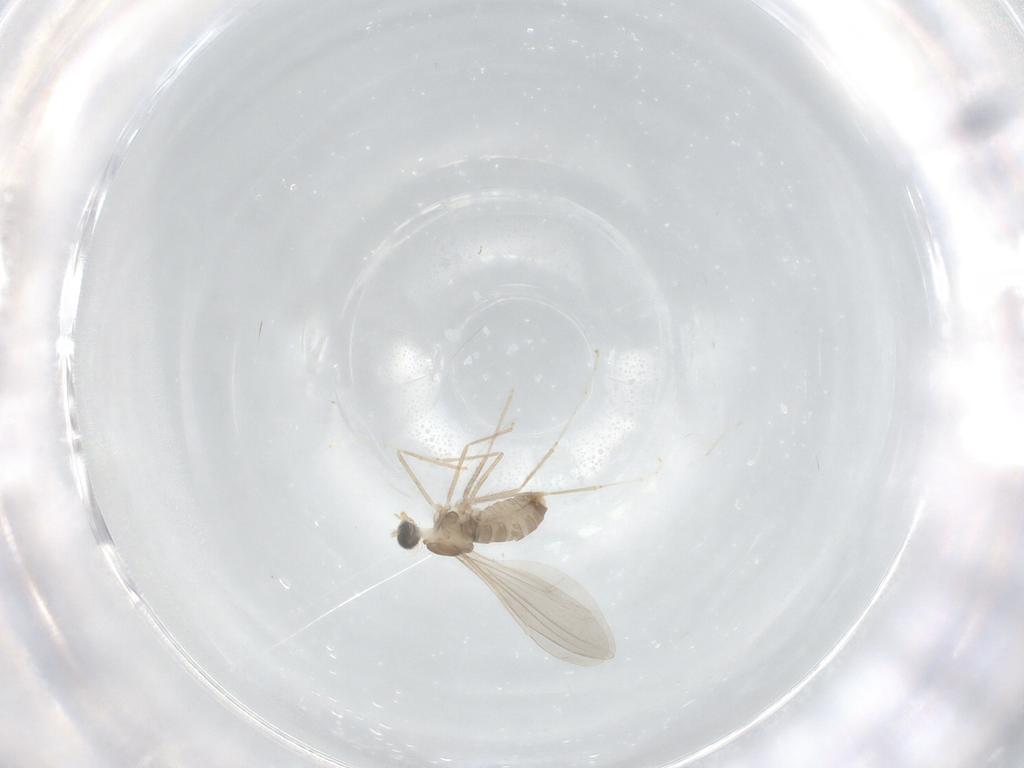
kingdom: Animalia
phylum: Arthropoda
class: Insecta
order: Diptera
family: Cecidomyiidae
